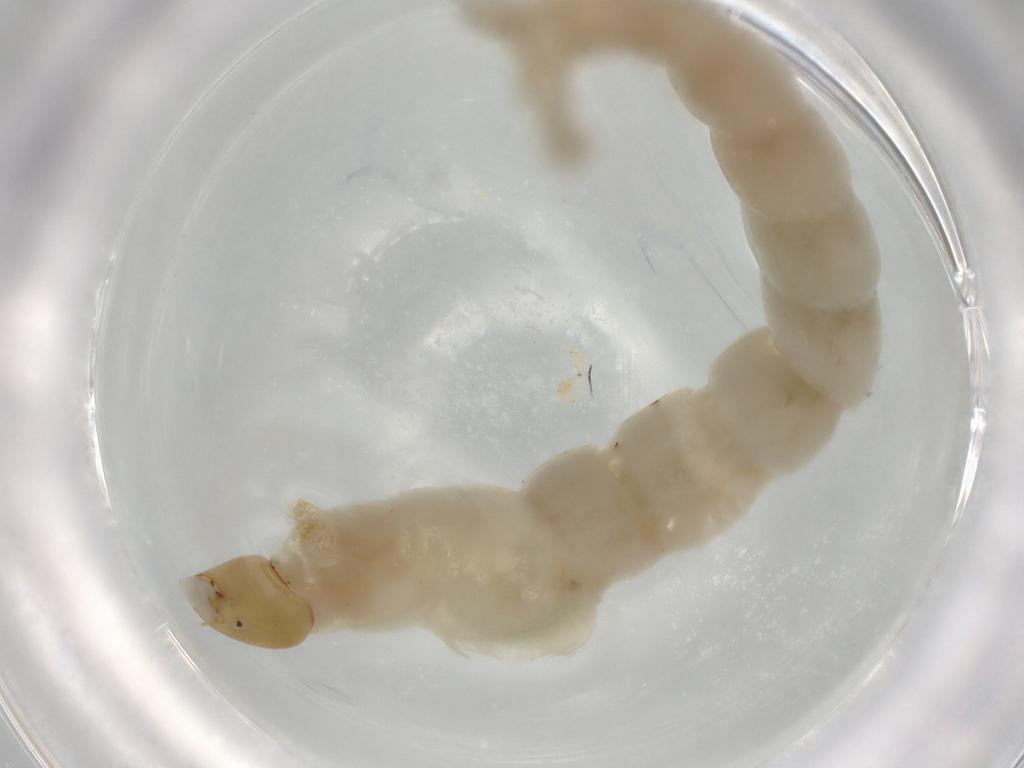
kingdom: Animalia
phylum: Arthropoda
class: Insecta
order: Diptera
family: Chironomidae
